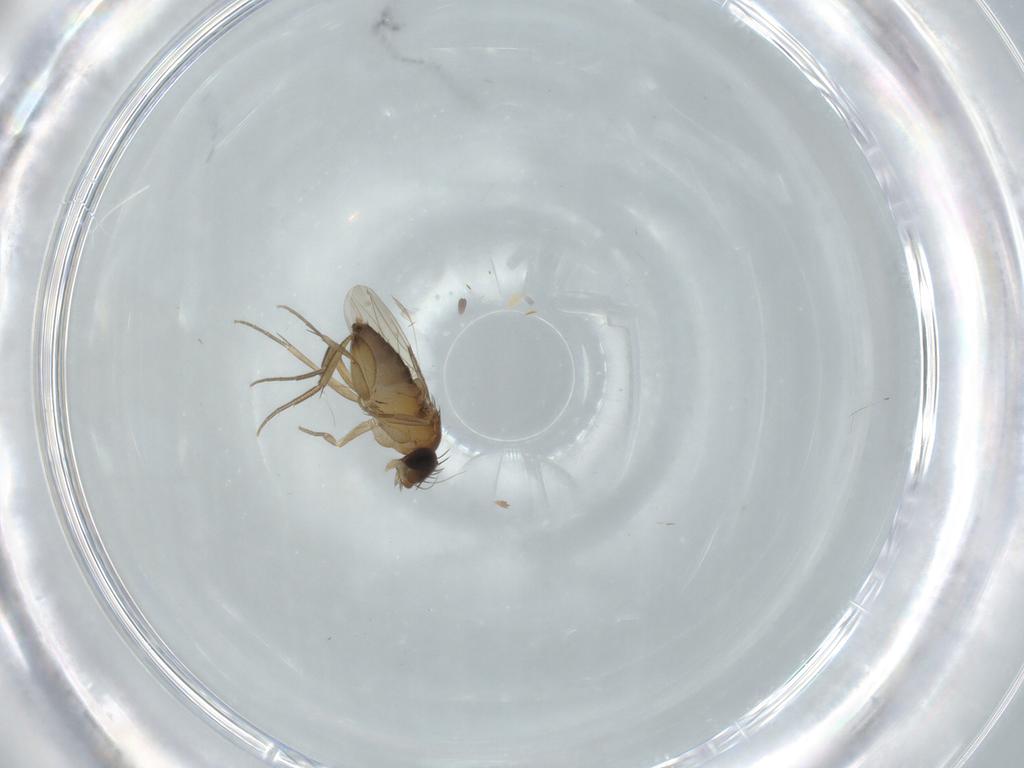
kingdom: Animalia
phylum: Arthropoda
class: Insecta
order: Diptera
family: Phoridae
